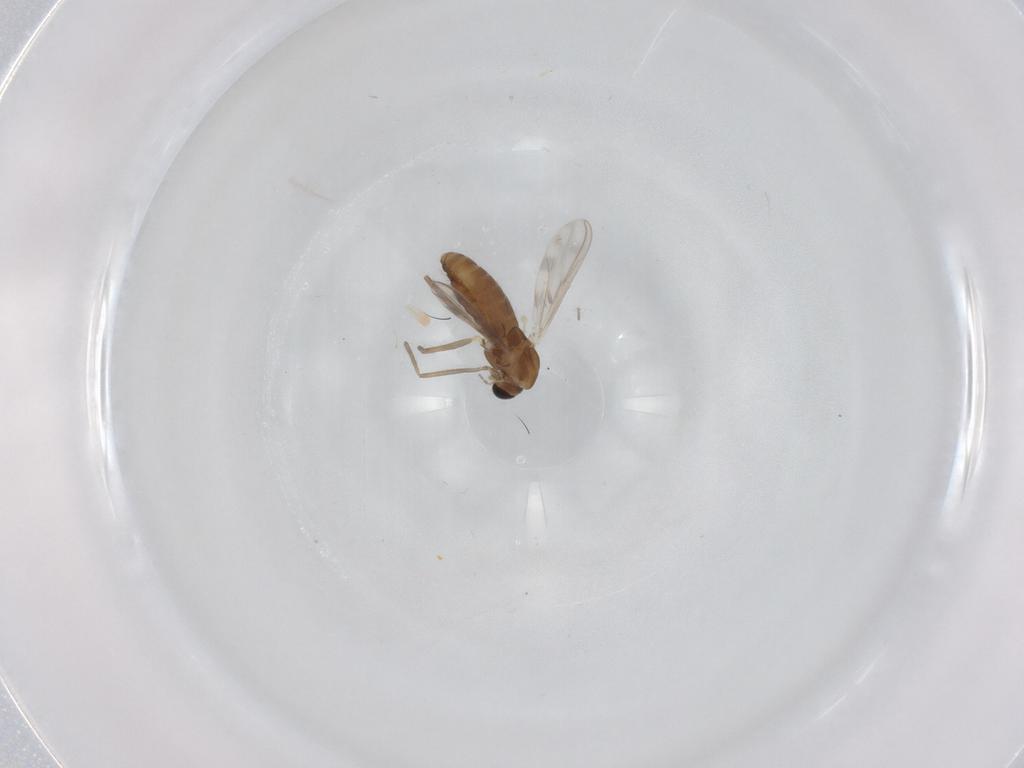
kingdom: Animalia
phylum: Arthropoda
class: Insecta
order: Diptera
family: Chironomidae
